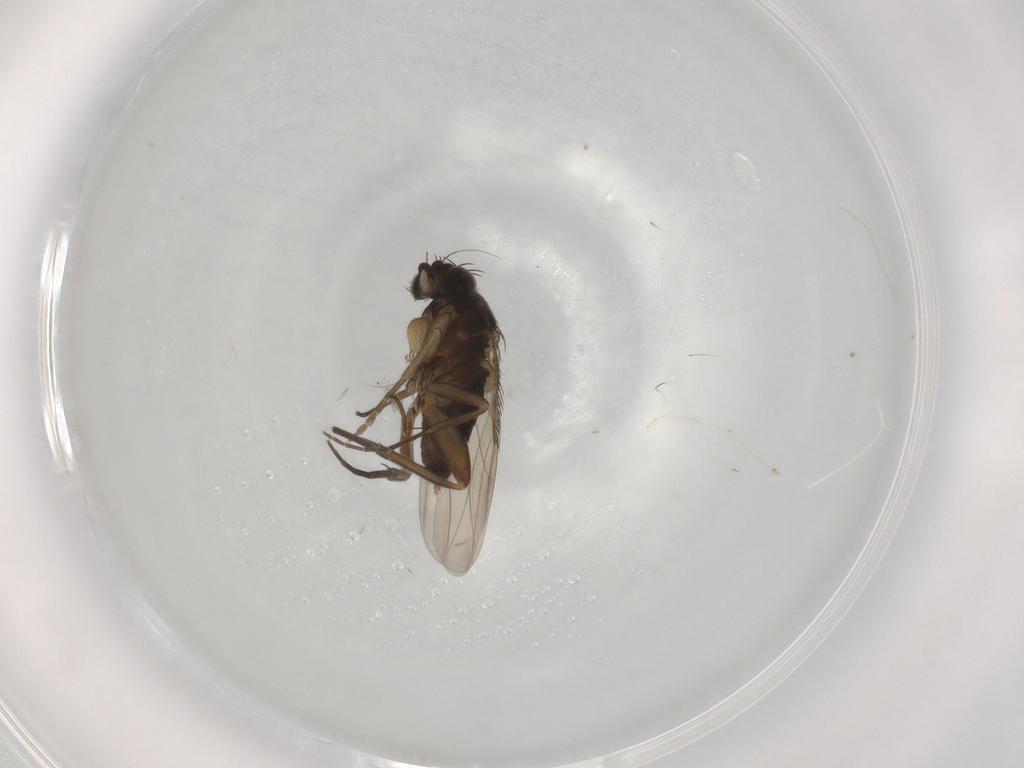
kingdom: Animalia
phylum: Arthropoda
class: Insecta
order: Diptera
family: Phoridae
